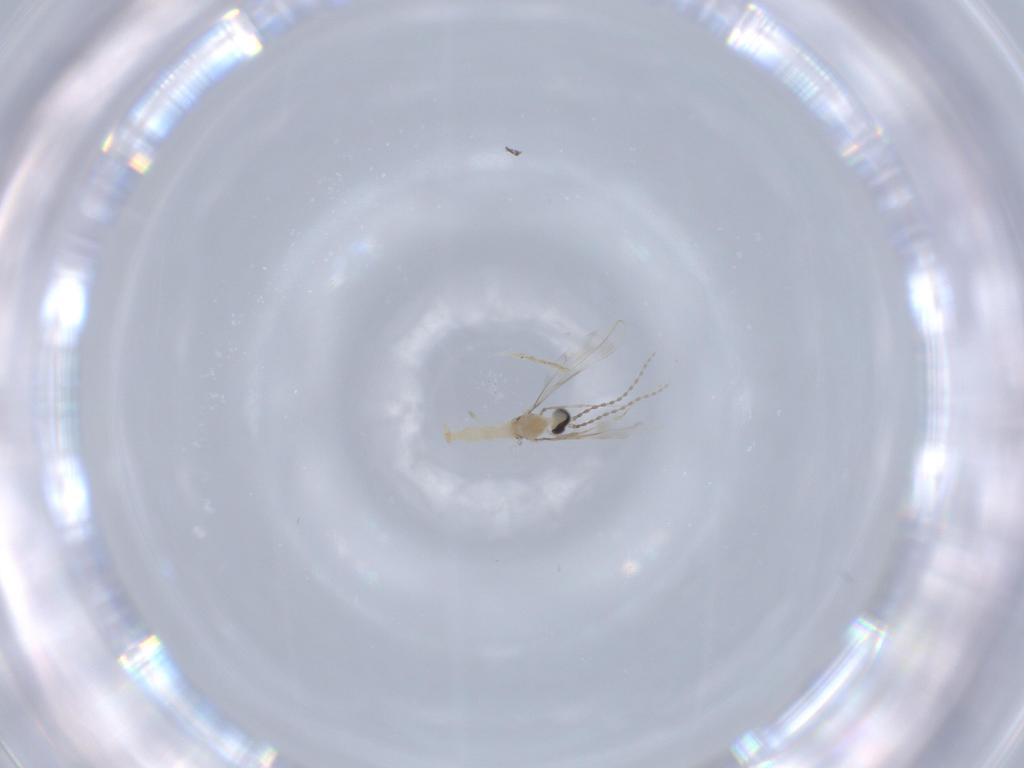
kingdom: Animalia
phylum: Arthropoda
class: Insecta
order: Diptera
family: Cecidomyiidae
